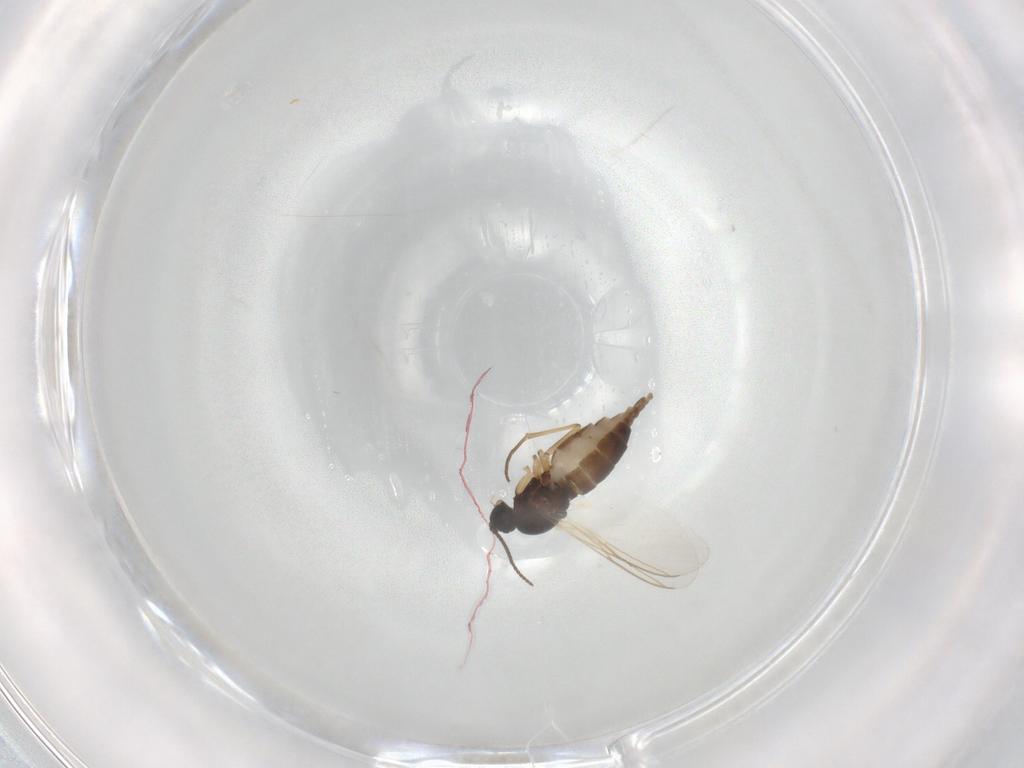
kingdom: Animalia
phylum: Arthropoda
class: Insecta
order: Diptera
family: Sciaridae
